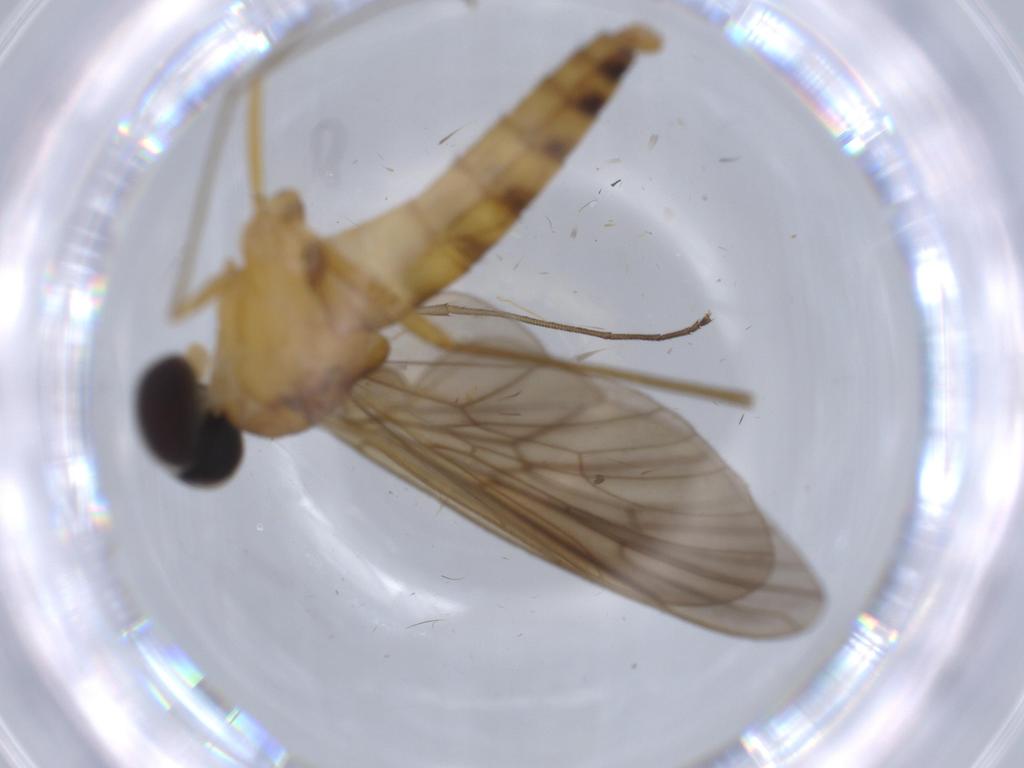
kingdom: Animalia
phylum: Arthropoda
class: Insecta
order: Diptera
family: Cecidomyiidae
